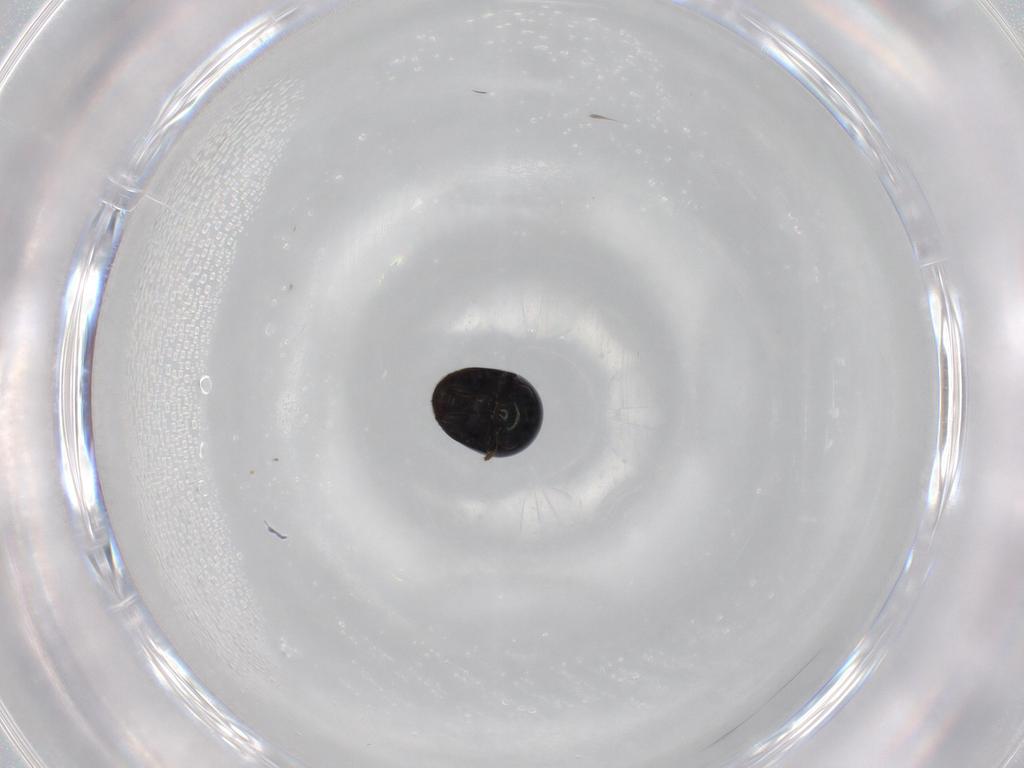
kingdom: Animalia
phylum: Arthropoda
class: Insecta
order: Coleoptera
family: Cybocephalidae
